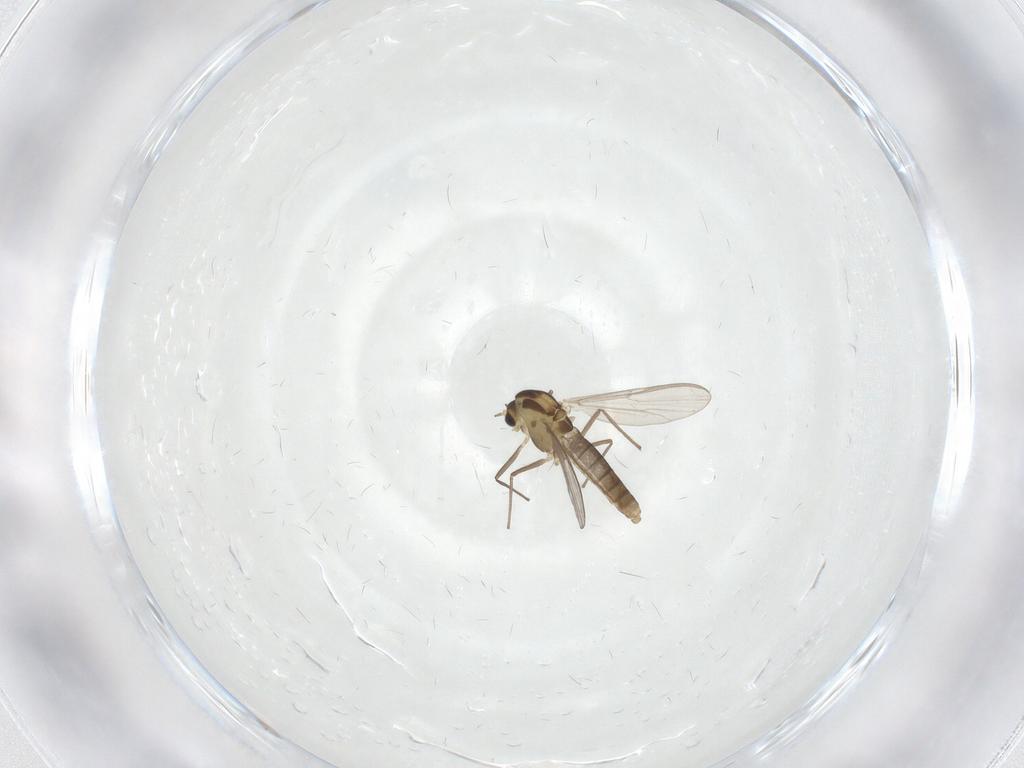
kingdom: Animalia
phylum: Arthropoda
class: Insecta
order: Diptera
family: Chironomidae
